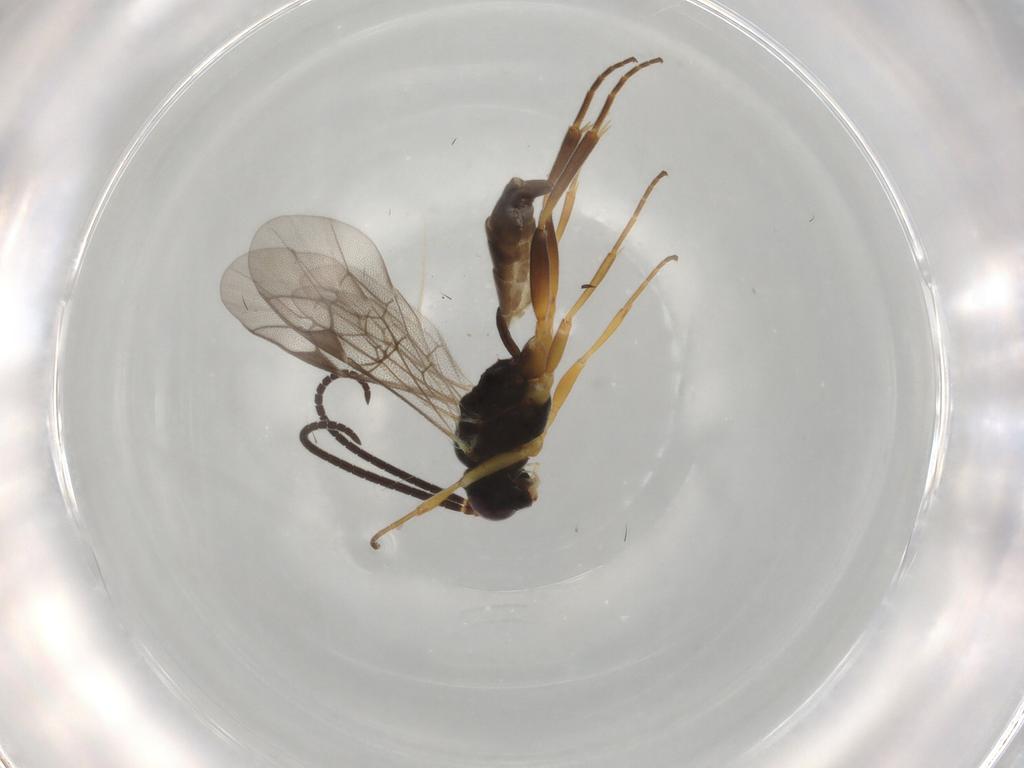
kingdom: Animalia
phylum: Arthropoda
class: Insecta
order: Hymenoptera
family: Ichneumonidae
